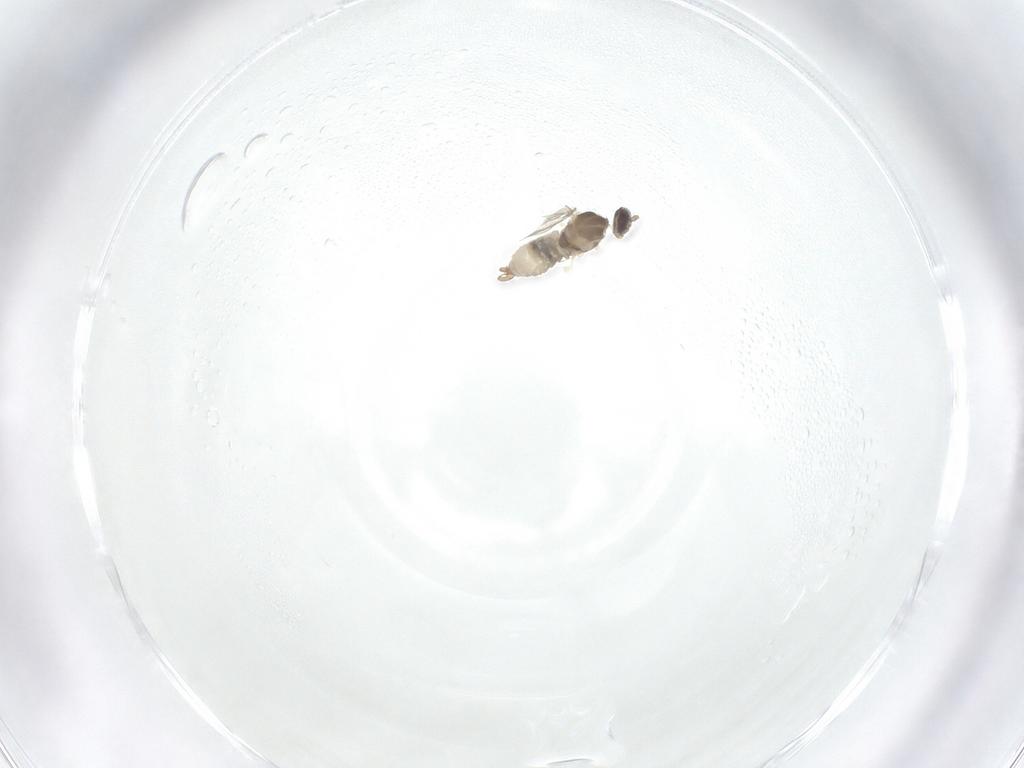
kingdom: Animalia
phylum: Arthropoda
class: Insecta
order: Diptera
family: Cecidomyiidae
